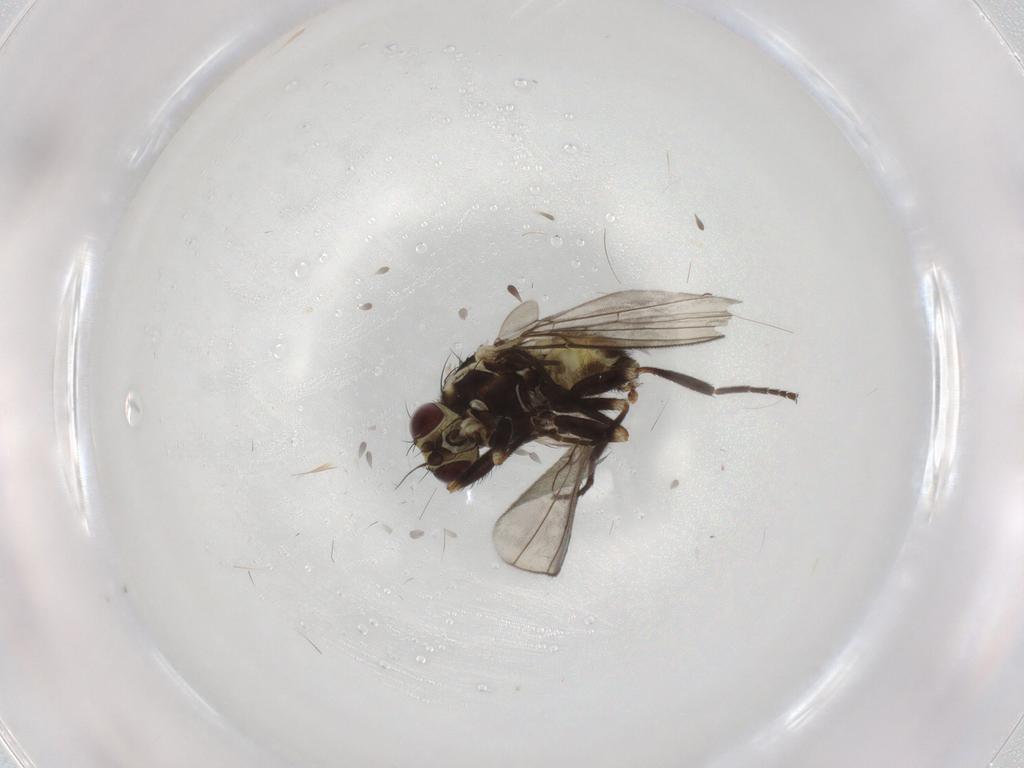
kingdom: Animalia
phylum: Arthropoda
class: Insecta
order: Diptera
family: Agromyzidae
